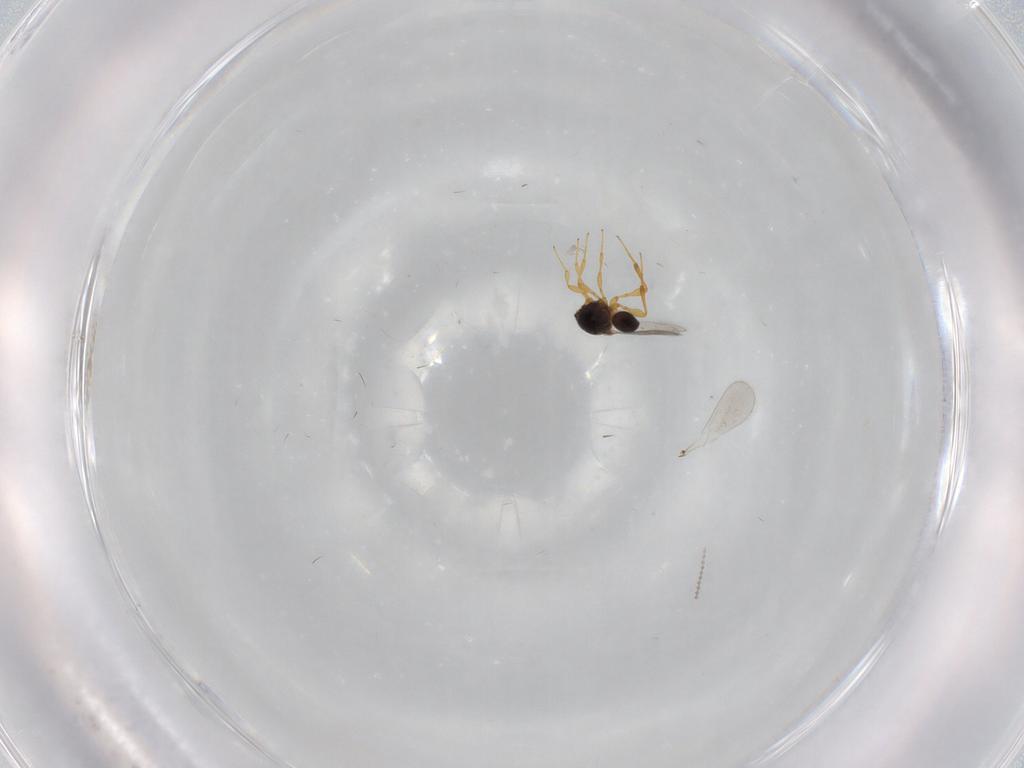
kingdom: Animalia
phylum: Arthropoda
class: Insecta
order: Hymenoptera
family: Platygastridae
